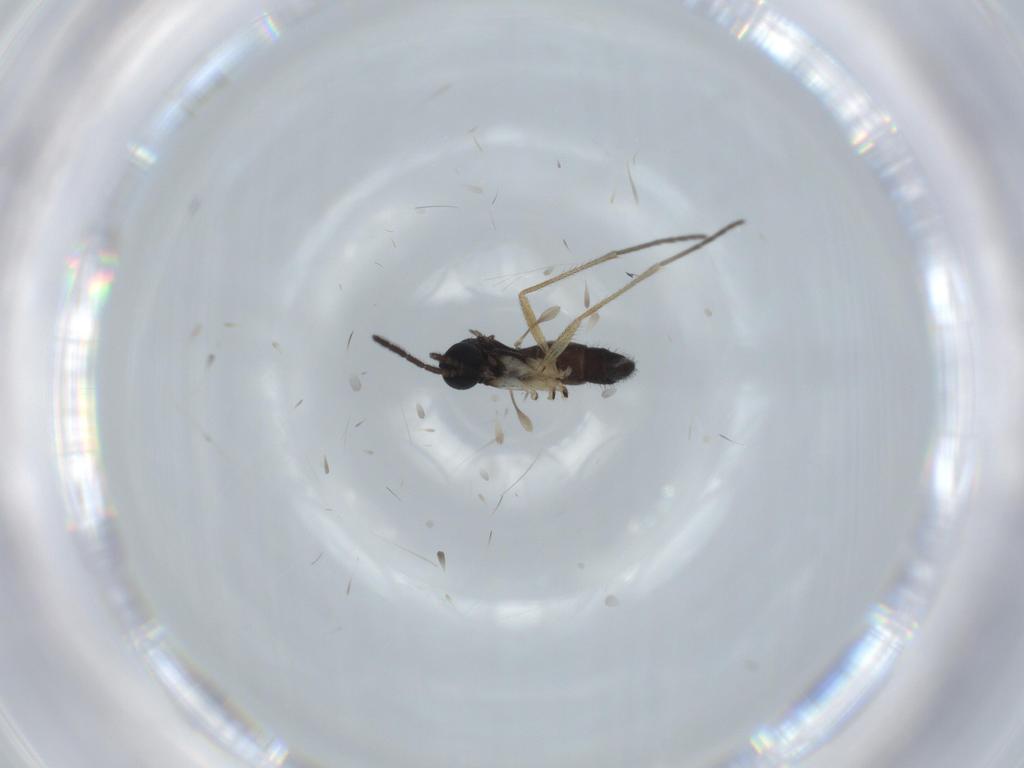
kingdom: Animalia
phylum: Arthropoda
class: Insecta
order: Diptera
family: Sciaridae
